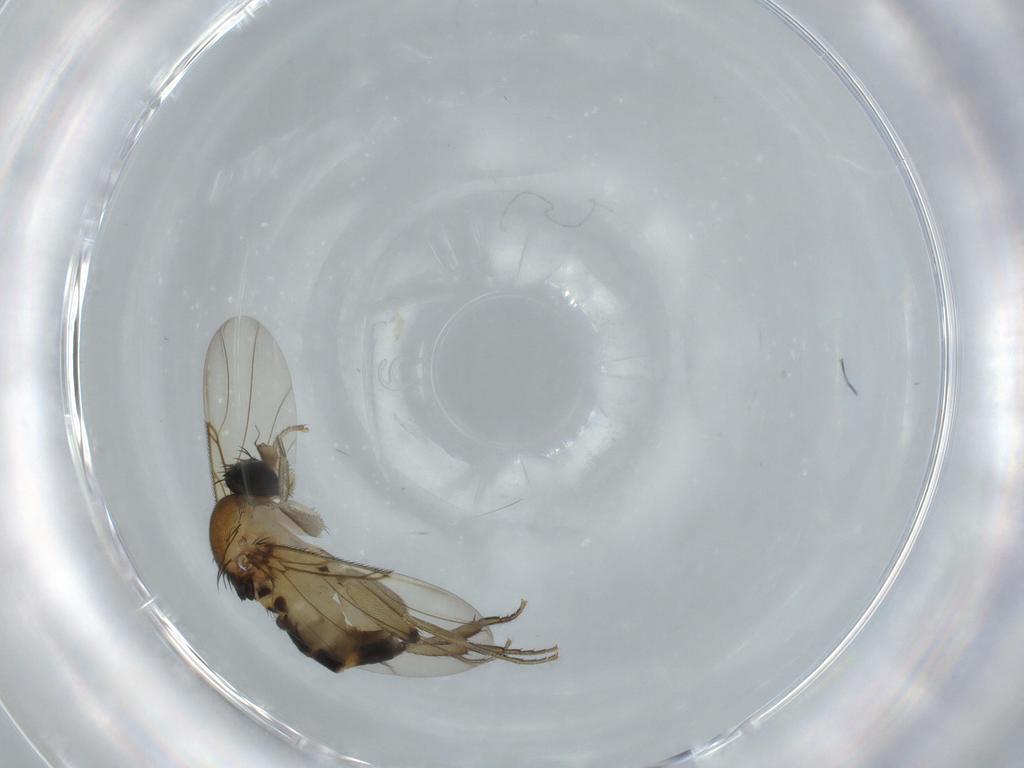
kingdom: Animalia
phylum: Arthropoda
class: Insecta
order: Diptera
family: Phoridae
